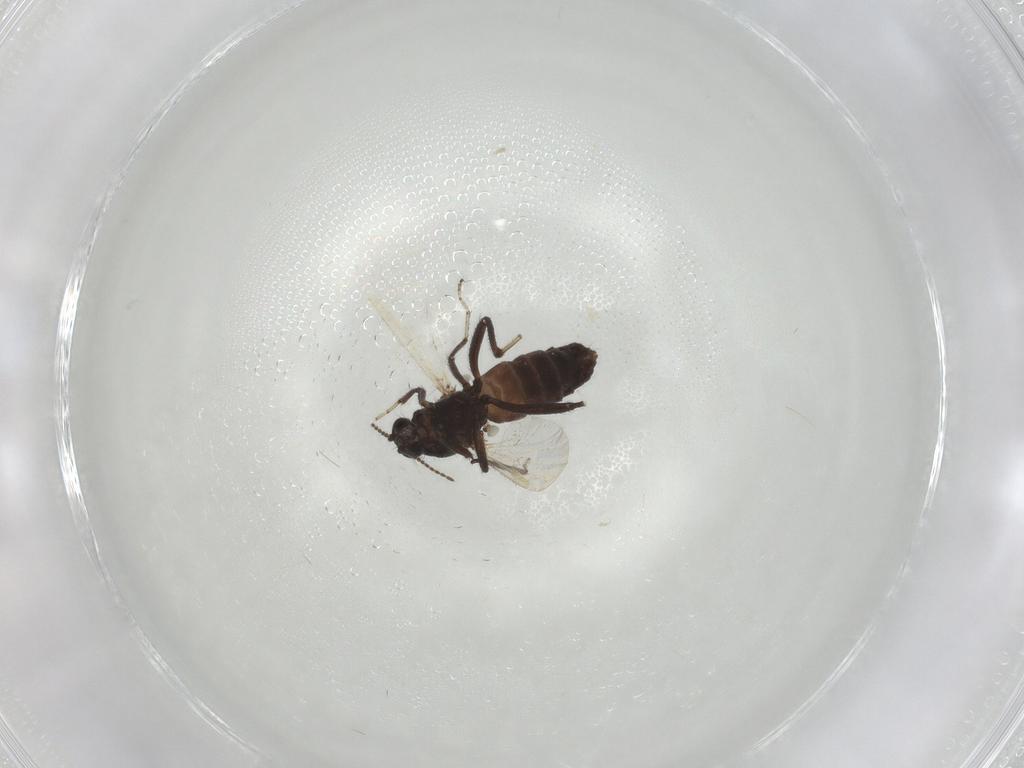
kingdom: Animalia
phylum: Arthropoda
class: Insecta
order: Diptera
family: Ceratopogonidae
